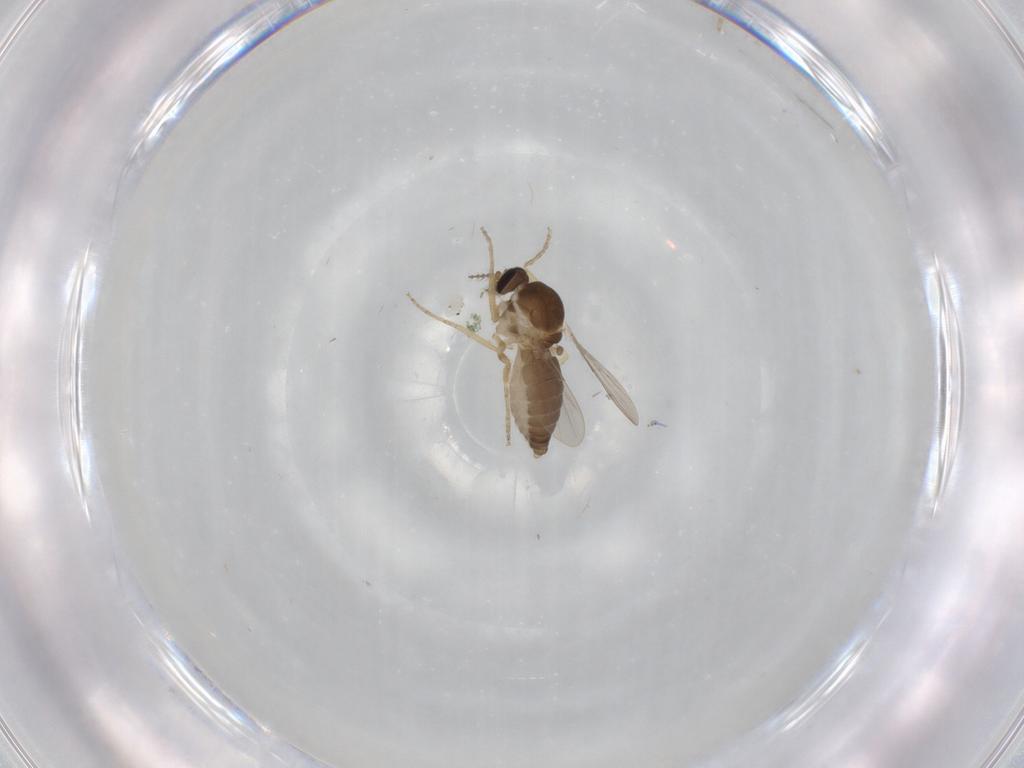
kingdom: Animalia
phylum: Arthropoda
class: Insecta
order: Diptera
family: Ceratopogonidae
